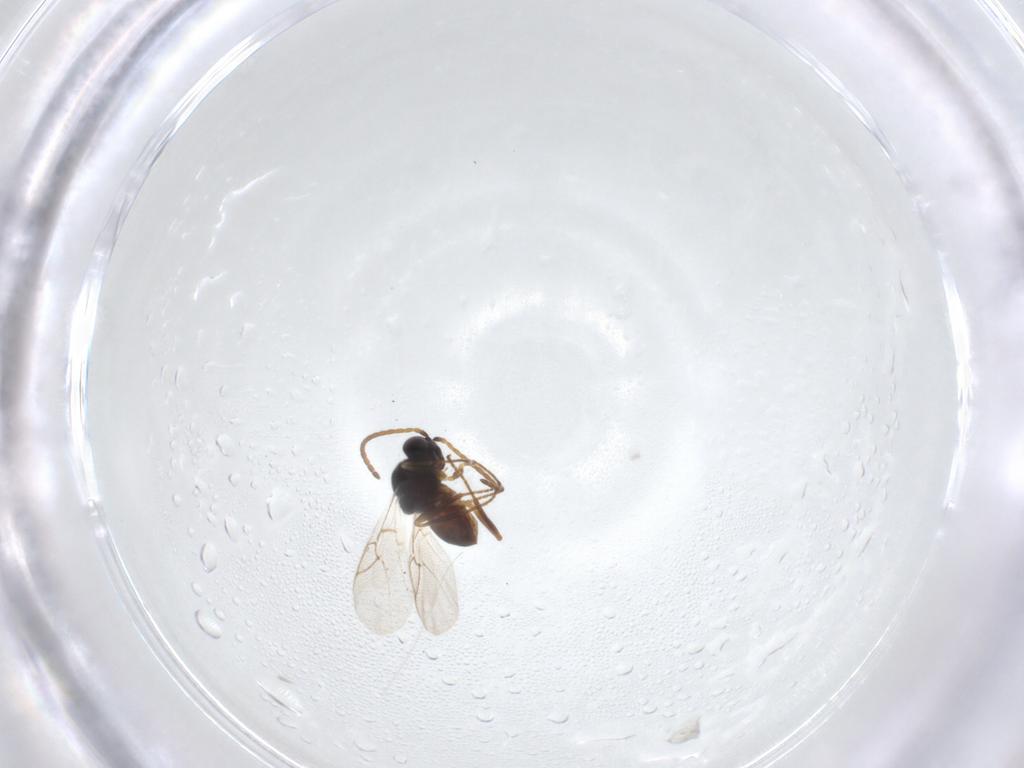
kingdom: Animalia
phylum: Arthropoda
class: Insecta
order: Hymenoptera
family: Cynipidae
